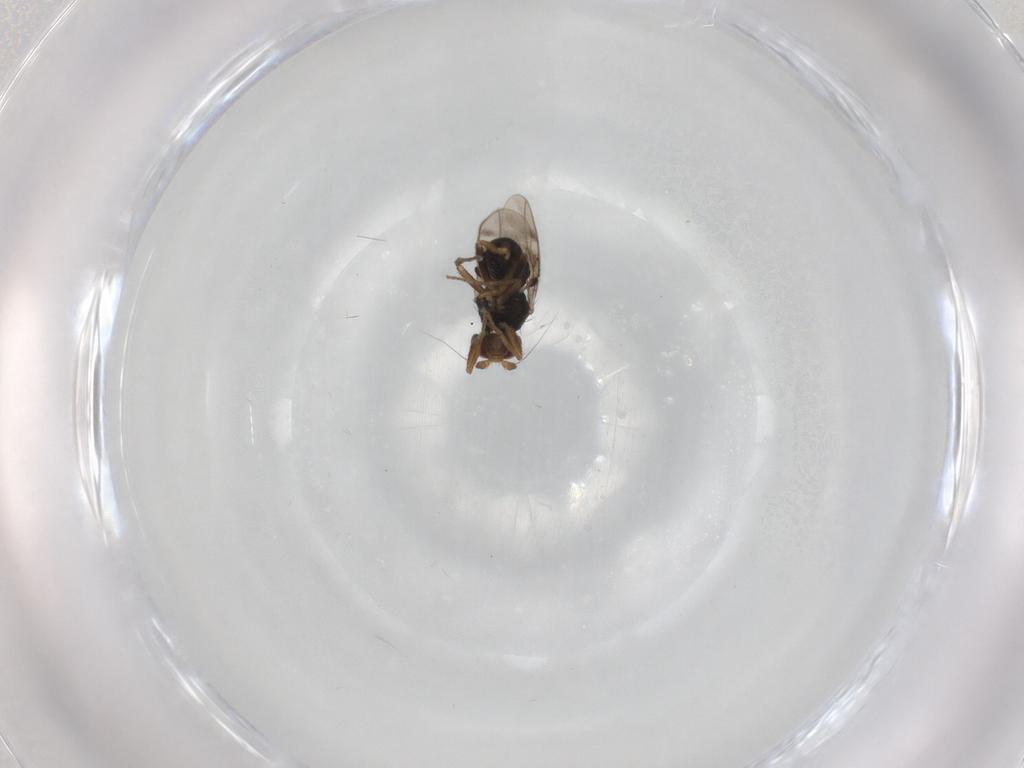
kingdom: Animalia
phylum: Arthropoda
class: Insecta
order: Diptera
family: Sphaeroceridae
